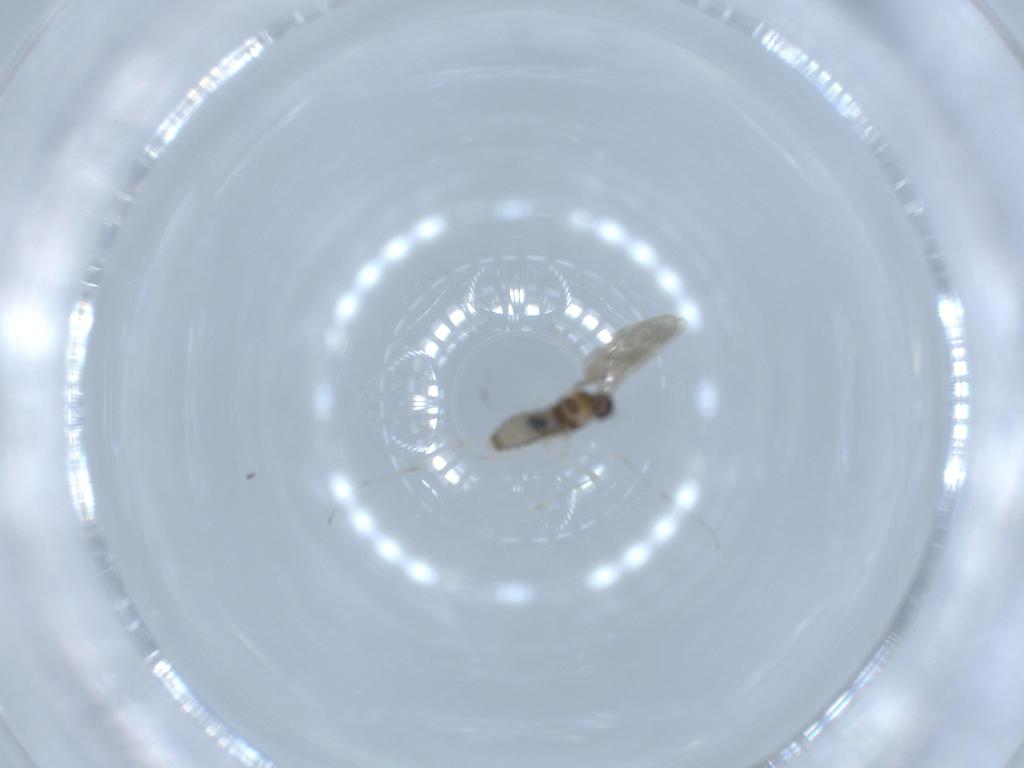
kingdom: Animalia
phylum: Arthropoda
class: Insecta
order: Diptera
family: Cecidomyiidae
